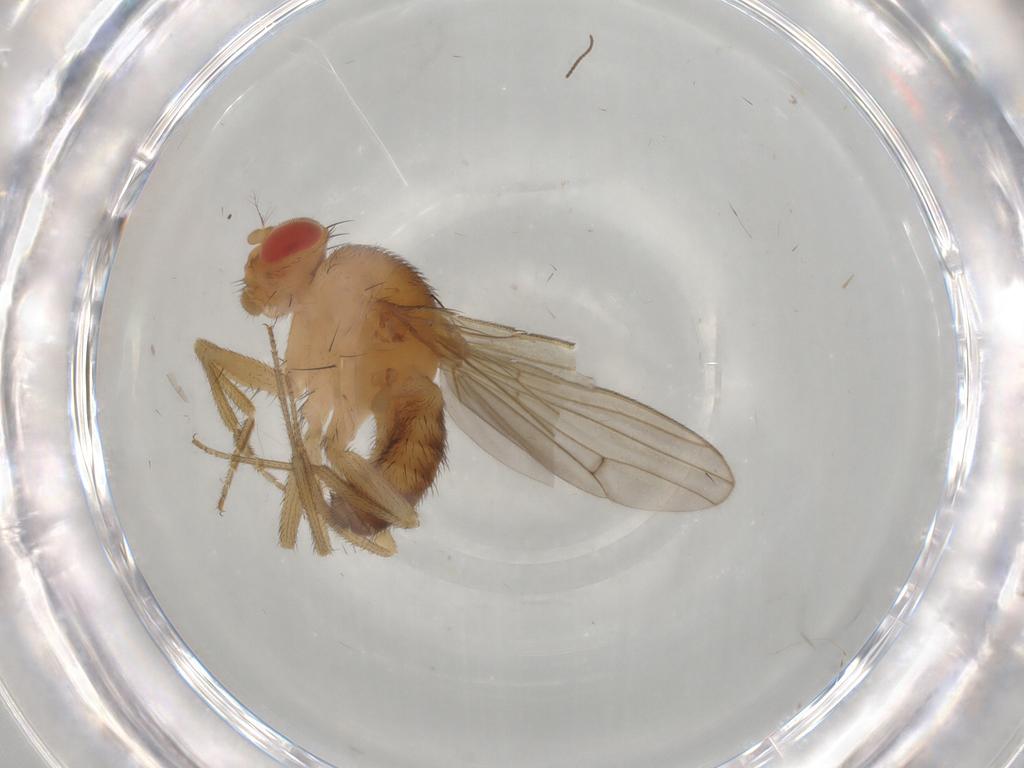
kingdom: Animalia
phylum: Arthropoda
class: Insecta
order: Diptera
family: Drosophilidae
